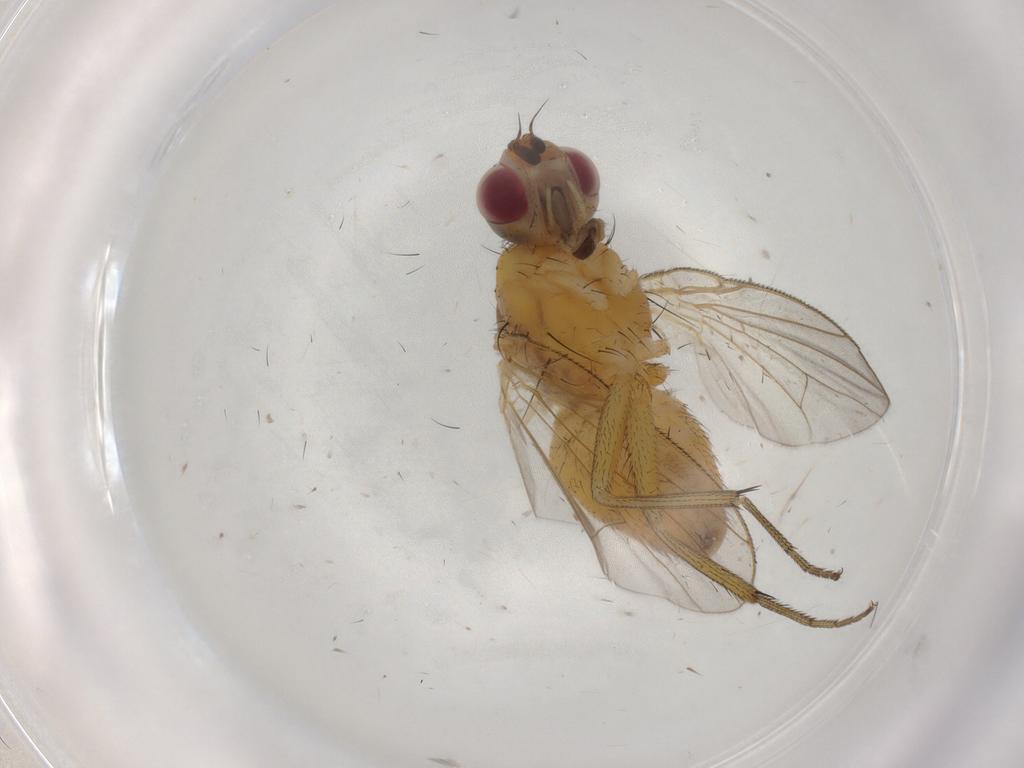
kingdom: Animalia
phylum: Arthropoda
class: Insecta
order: Diptera
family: Muscidae
